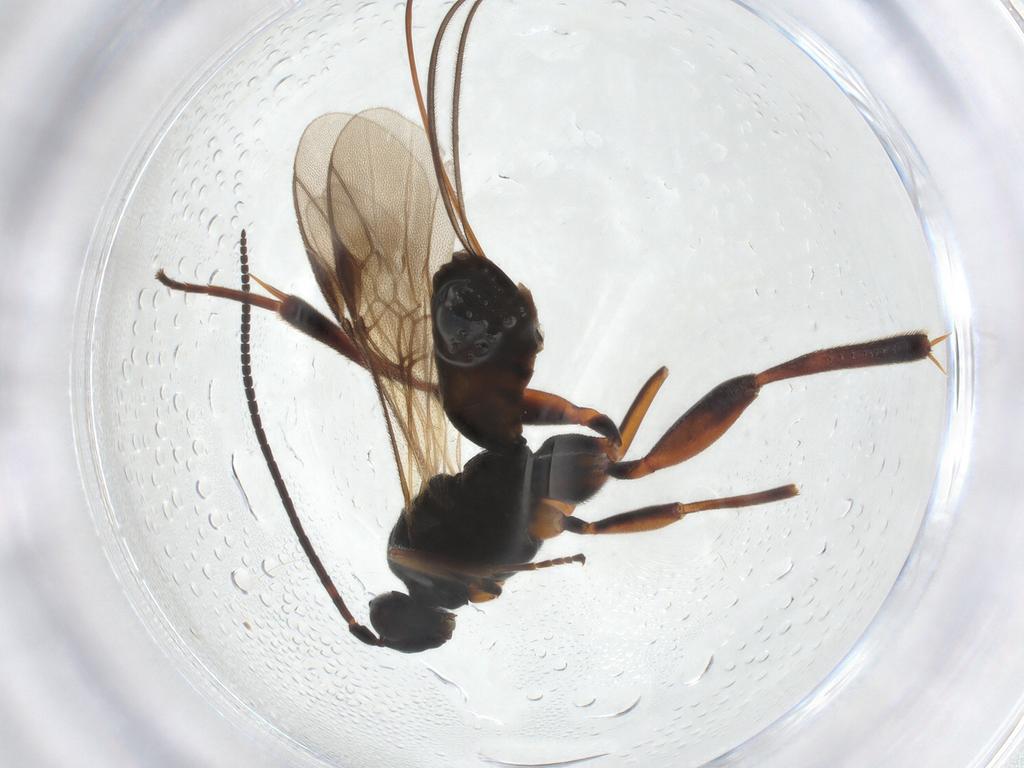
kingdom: Animalia
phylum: Arthropoda
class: Insecta
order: Hymenoptera
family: Braconidae
